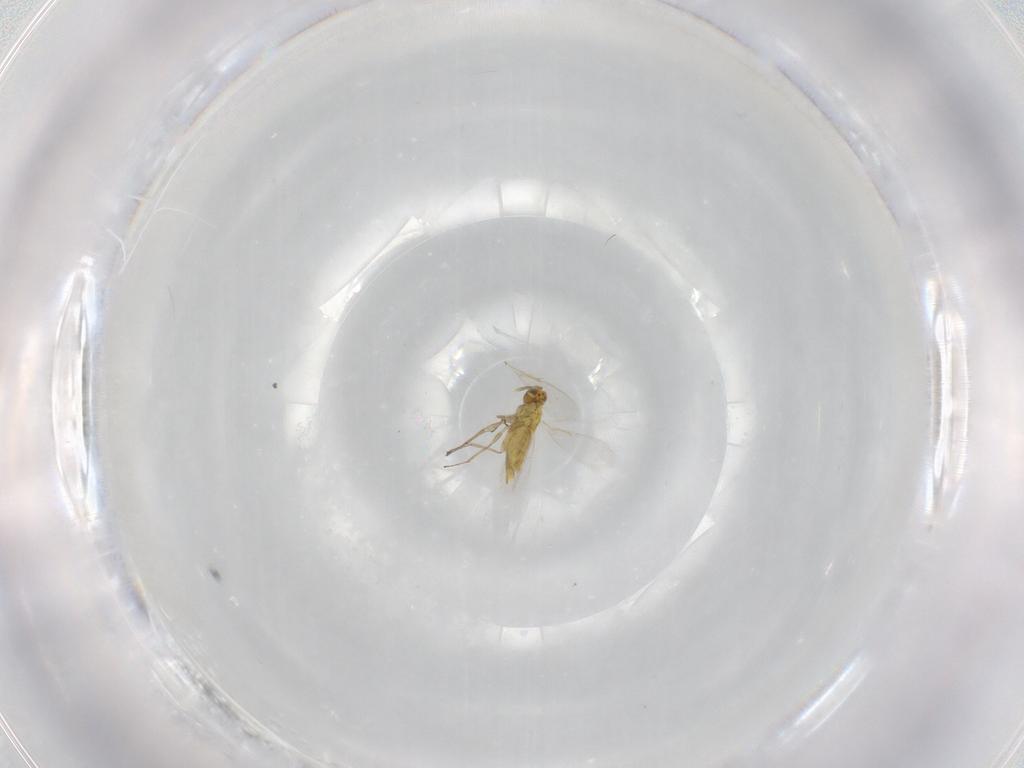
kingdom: Animalia
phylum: Arthropoda
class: Insecta
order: Hymenoptera
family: Aphelinidae
